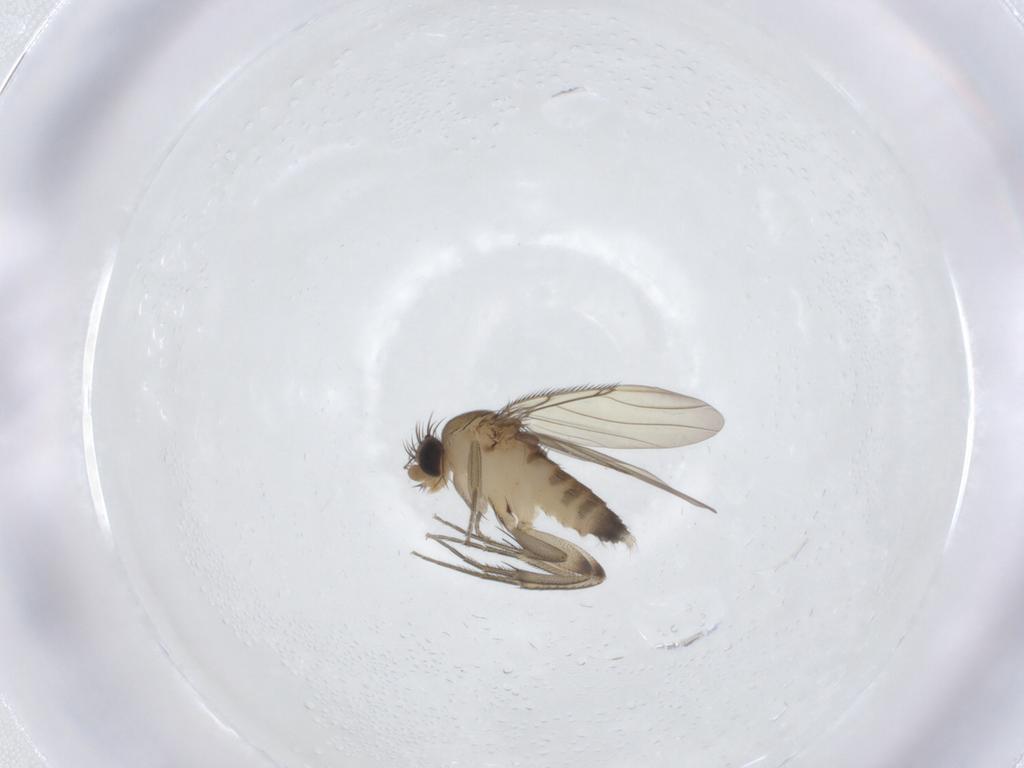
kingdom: Animalia
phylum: Arthropoda
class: Insecta
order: Diptera
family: Phoridae
